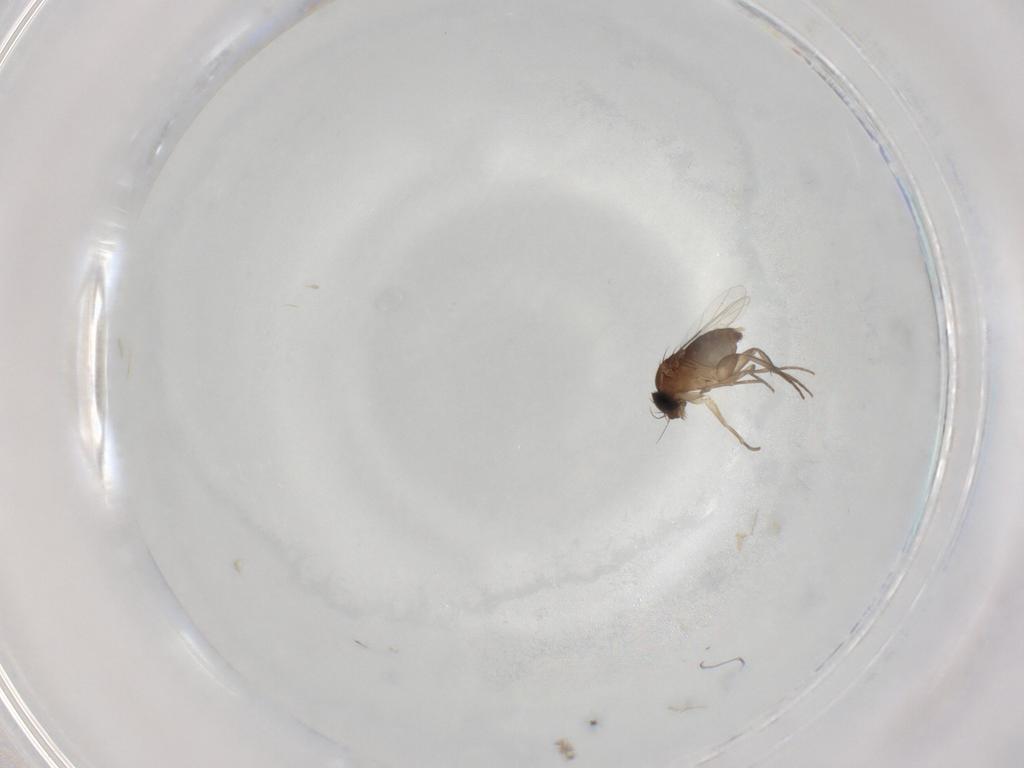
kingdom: Animalia
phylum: Arthropoda
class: Insecta
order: Diptera
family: Phoridae
